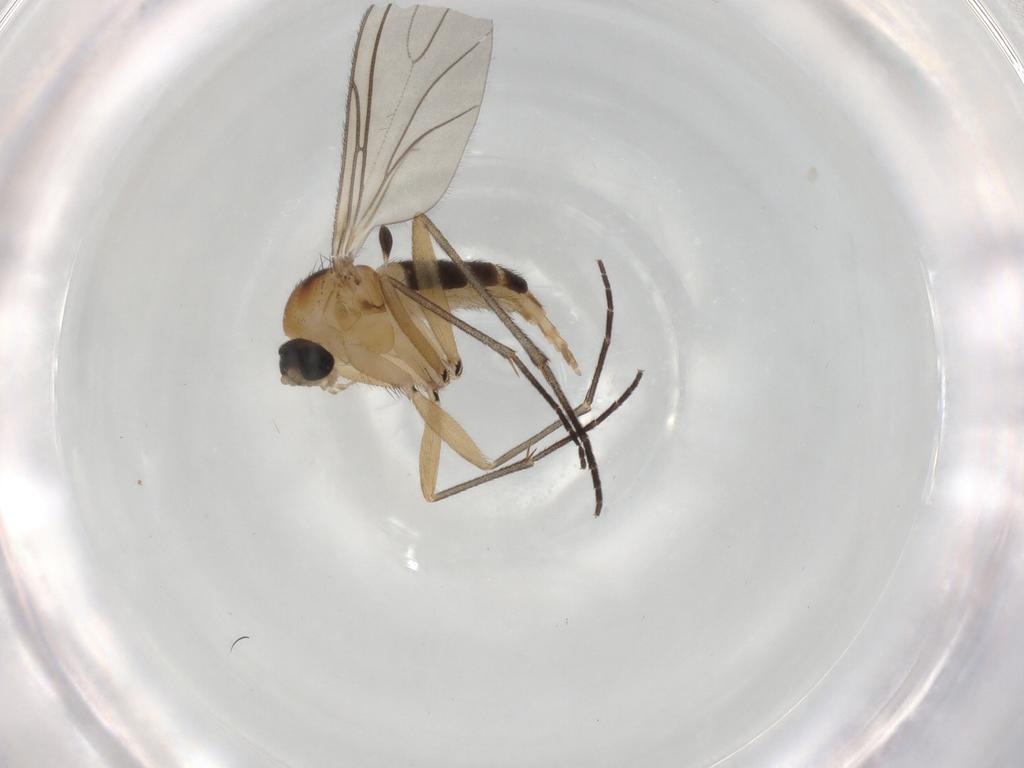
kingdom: Animalia
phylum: Arthropoda
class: Insecta
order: Diptera
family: Sciaridae
